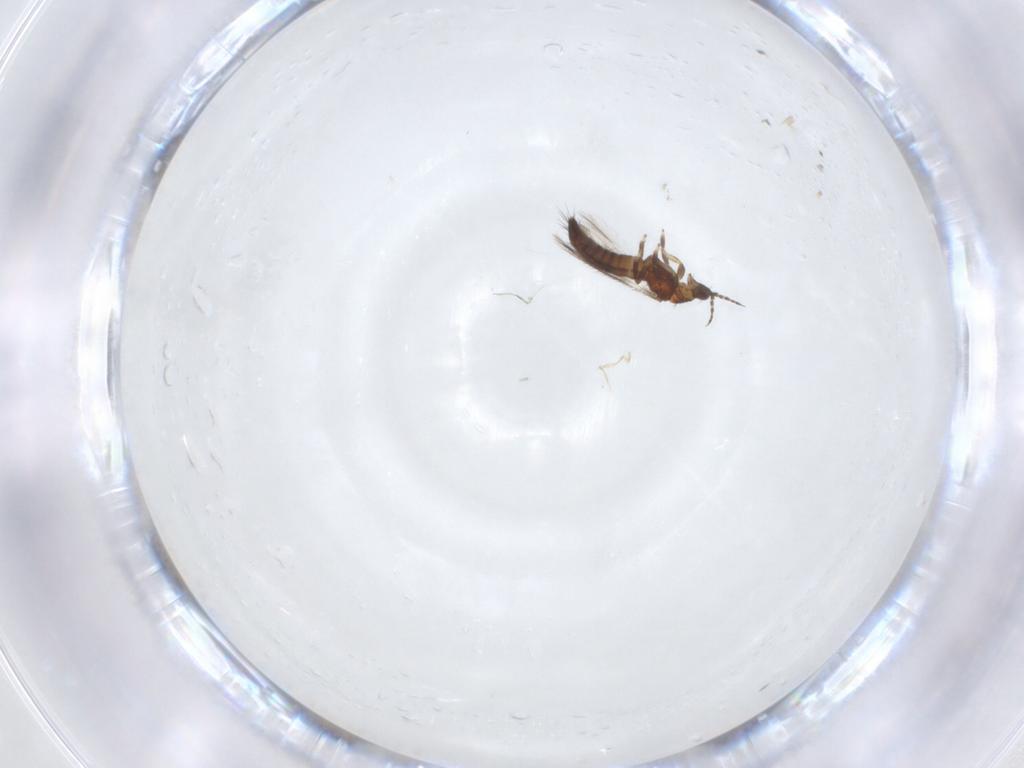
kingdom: Animalia
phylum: Arthropoda
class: Insecta
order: Thysanoptera
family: Thripidae
